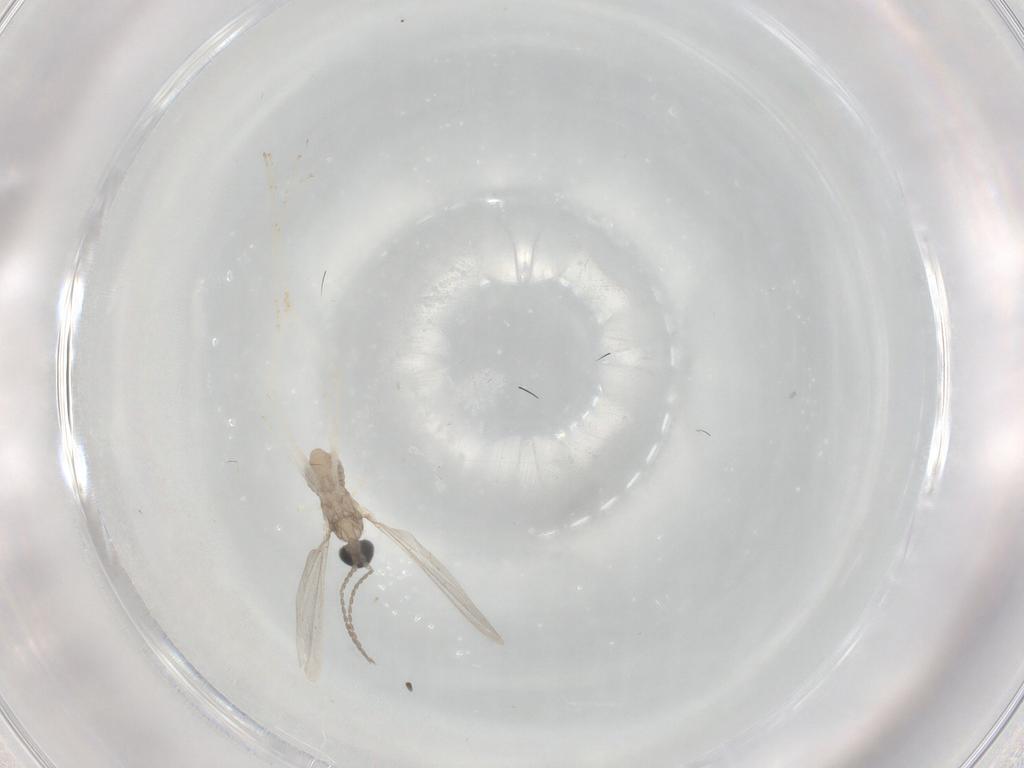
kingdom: Animalia
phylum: Arthropoda
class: Insecta
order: Diptera
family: Cecidomyiidae
